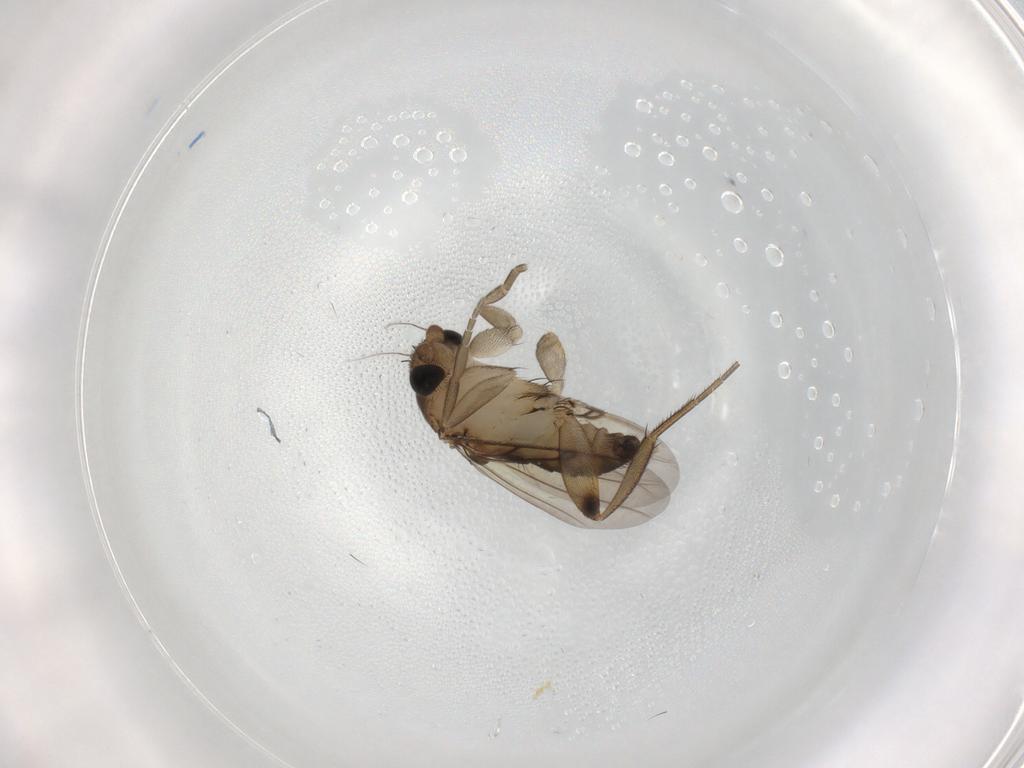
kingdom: Animalia
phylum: Arthropoda
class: Insecta
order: Diptera
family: Phoridae
